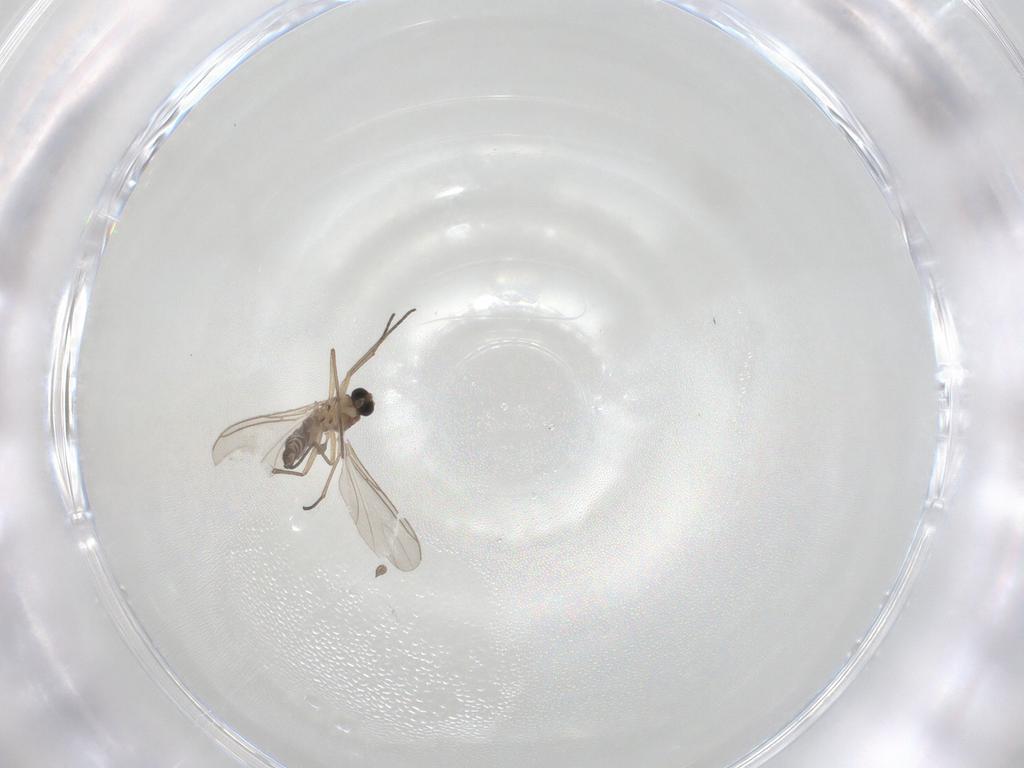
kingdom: Animalia
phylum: Arthropoda
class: Insecta
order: Diptera
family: Sciaridae
